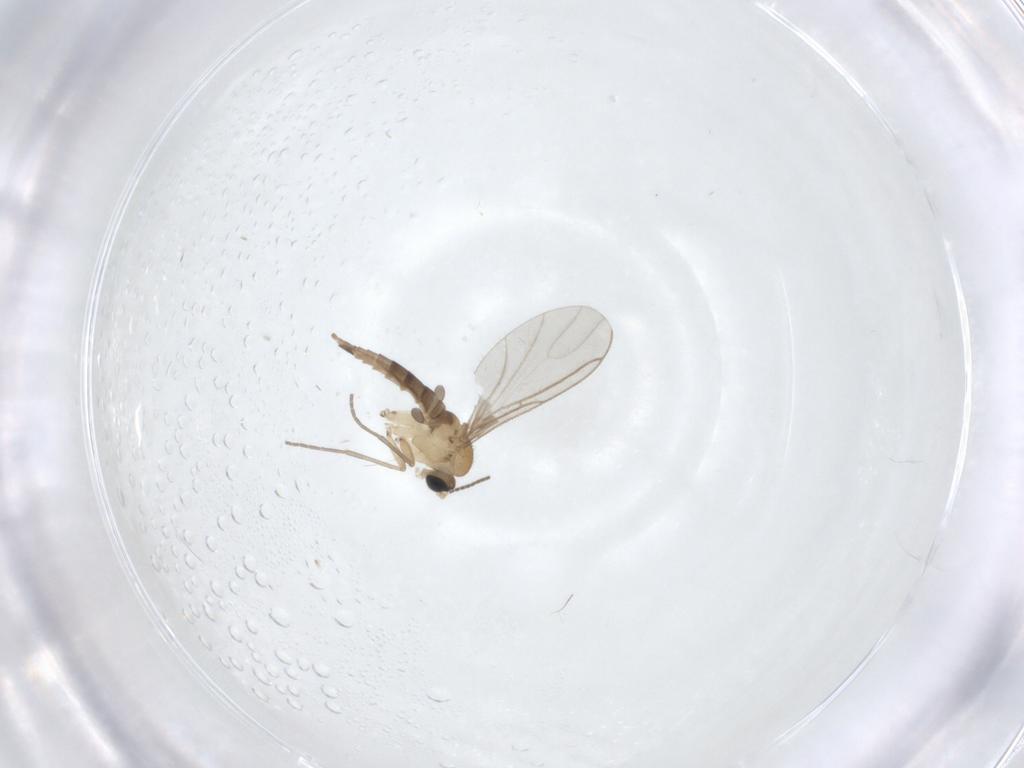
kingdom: Animalia
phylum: Arthropoda
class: Insecta
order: Diptera
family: Sciaridae
